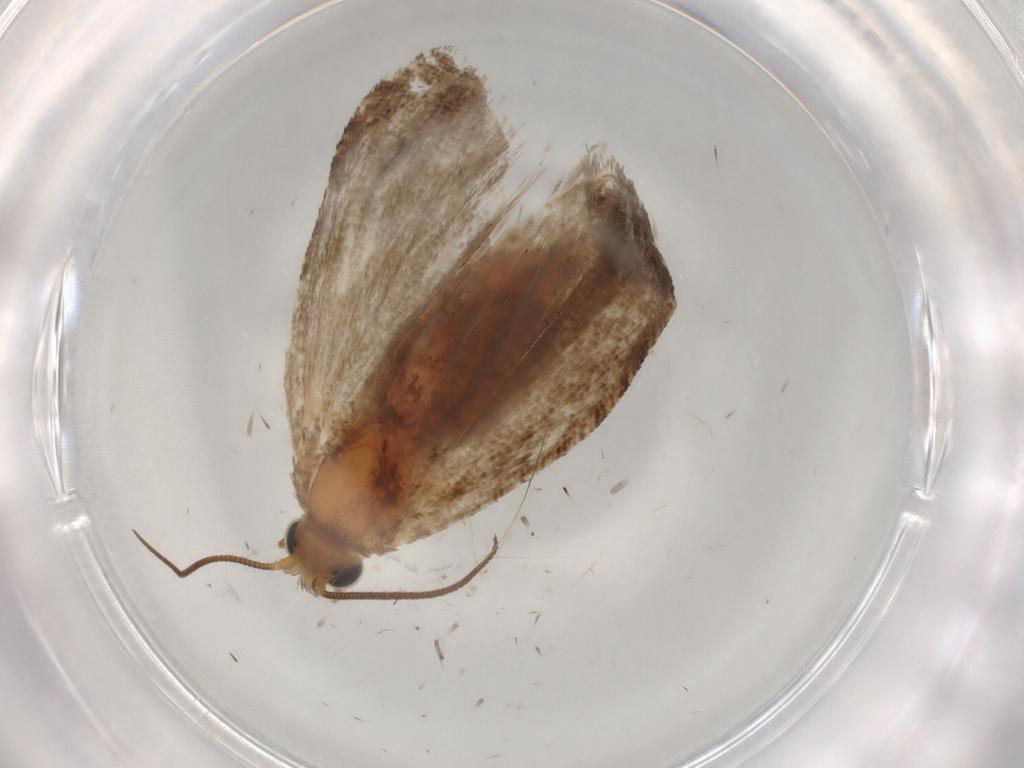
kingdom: Animalia
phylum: Arthropoda
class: Insecta
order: Lepidoptera
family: Tortricidae
